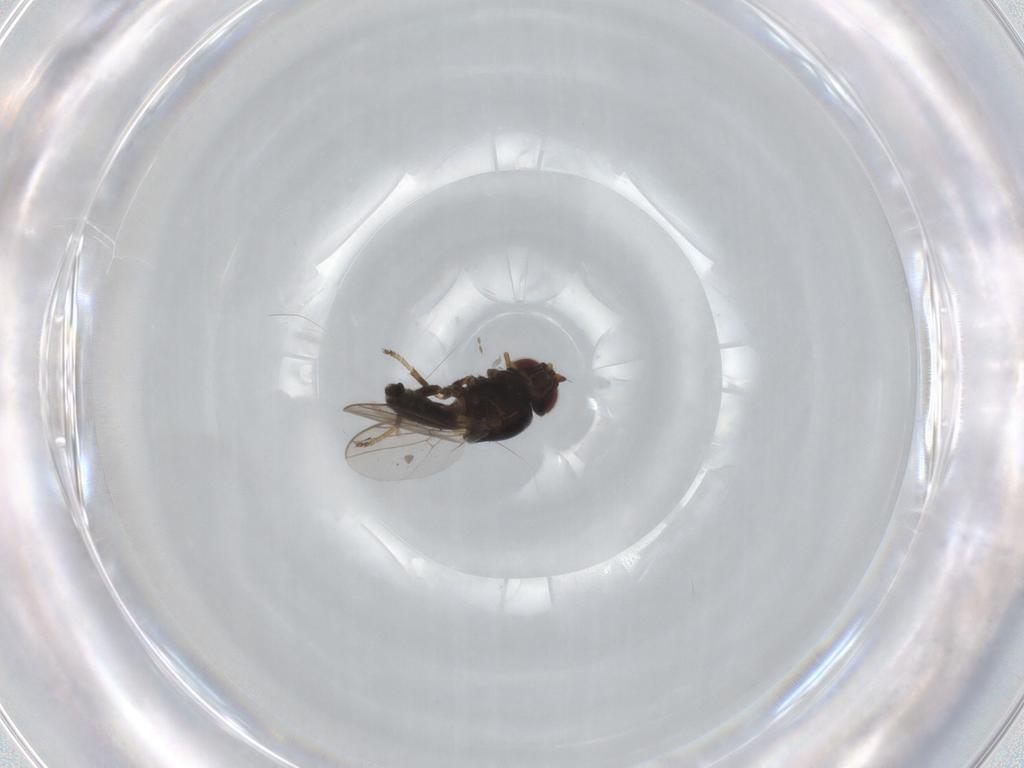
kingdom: Animalia
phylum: Arthropoda
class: Insecta
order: Diptera
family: Chloropidae
